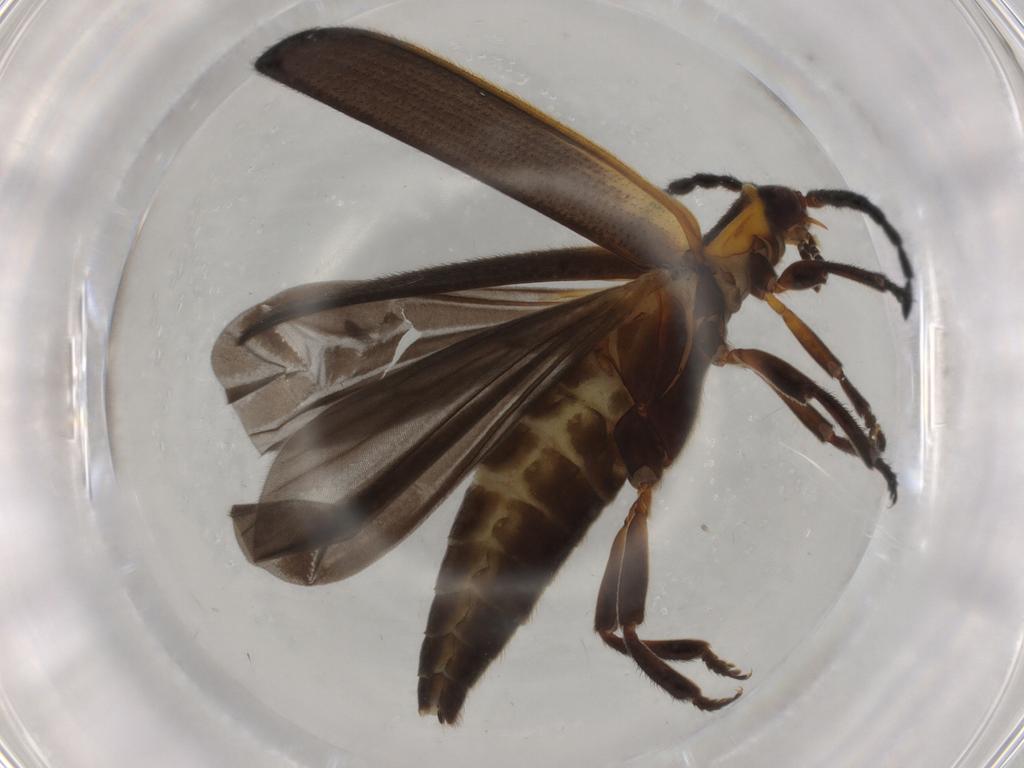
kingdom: Animalia
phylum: Arthropoda
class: Insecta
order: Coleoptera
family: Lycidae
